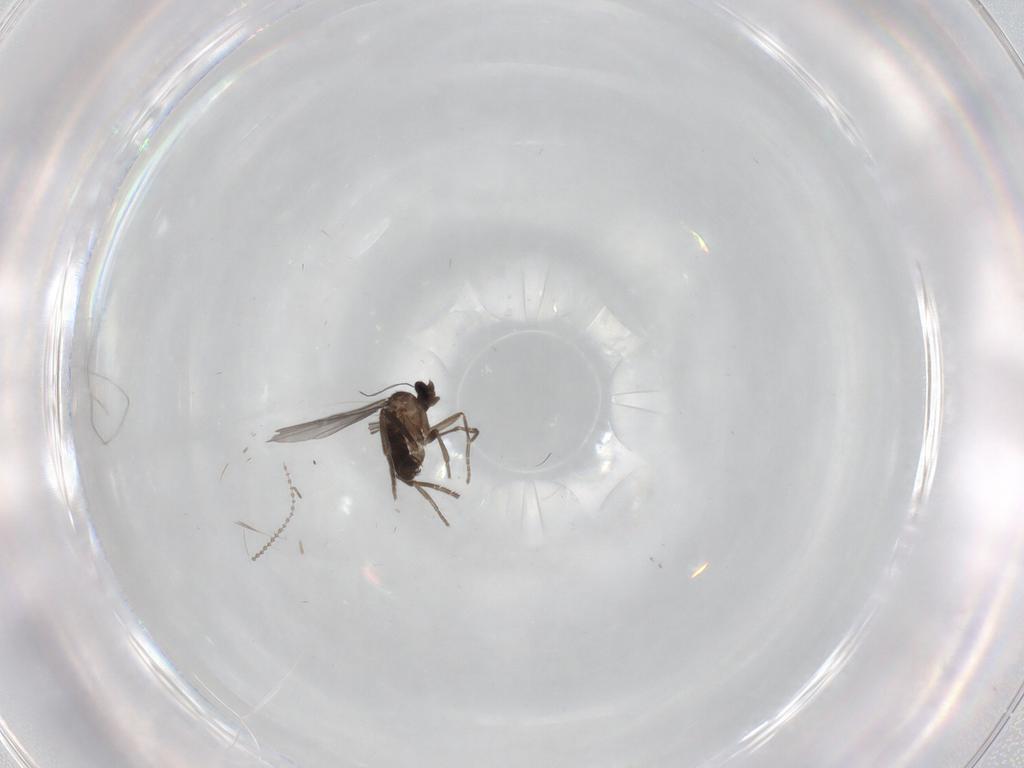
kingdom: Animalia
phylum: Arthropoda
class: Insecta
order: Diptera
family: Cecidomyiidae
